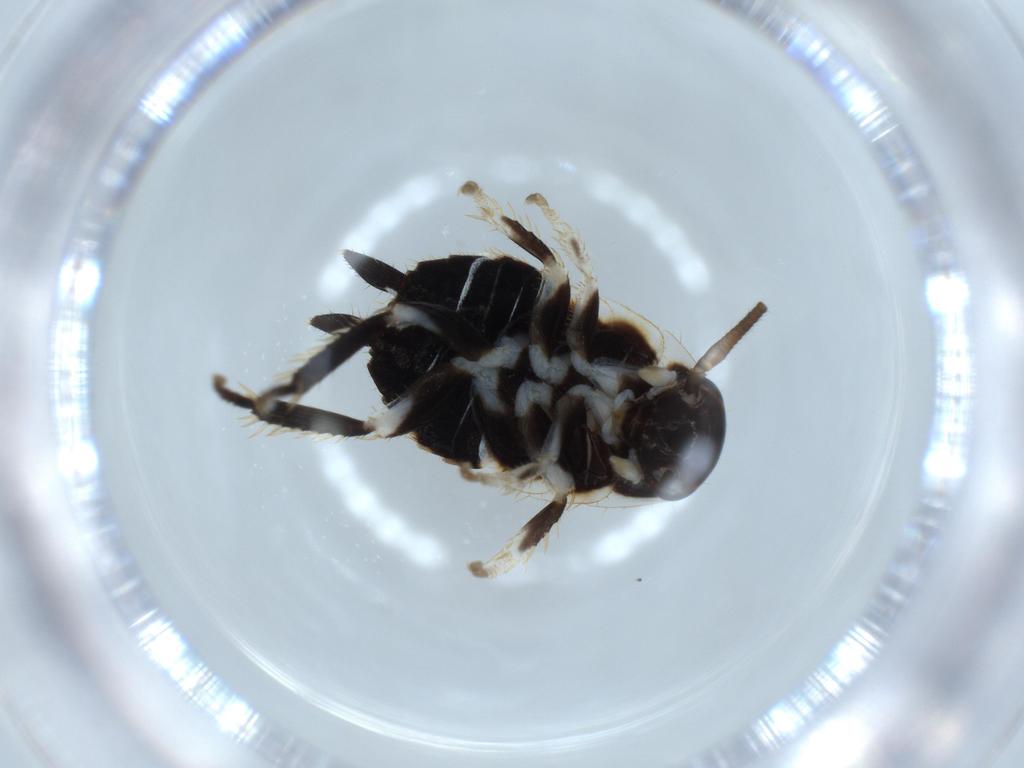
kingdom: Animalia
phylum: Arthropoda
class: Insecta
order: Blattodea
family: Ectobiidae
